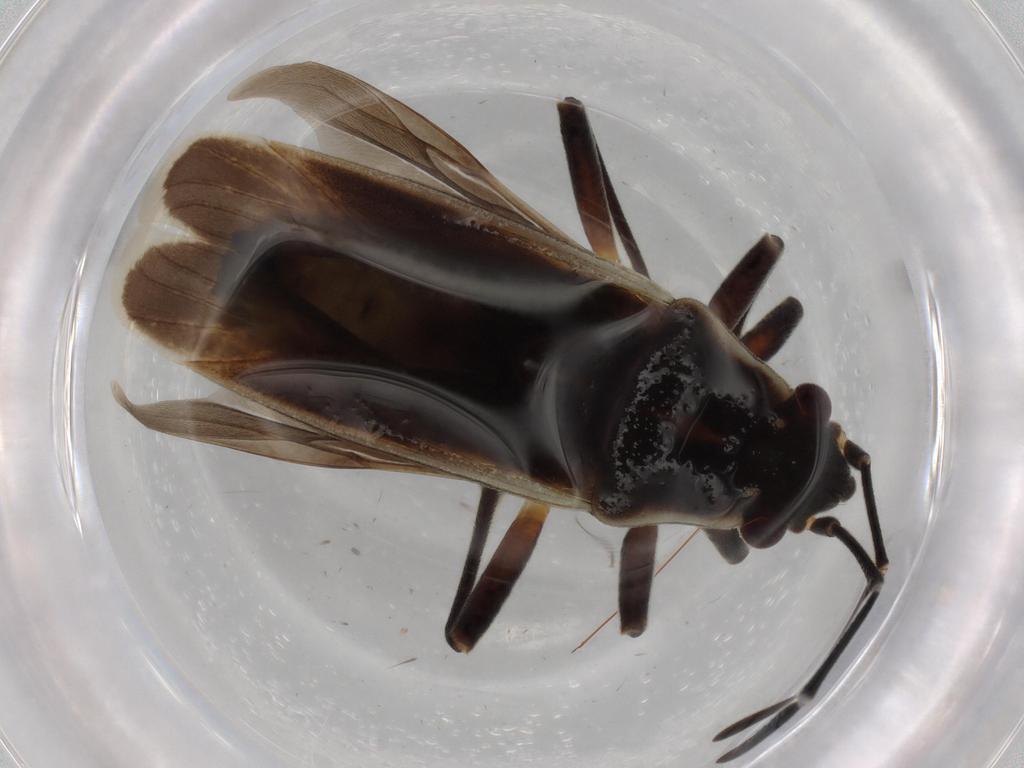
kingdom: Animalia
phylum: Arthropoda
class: Insecta
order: Hemiptera
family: Lygaeidae
